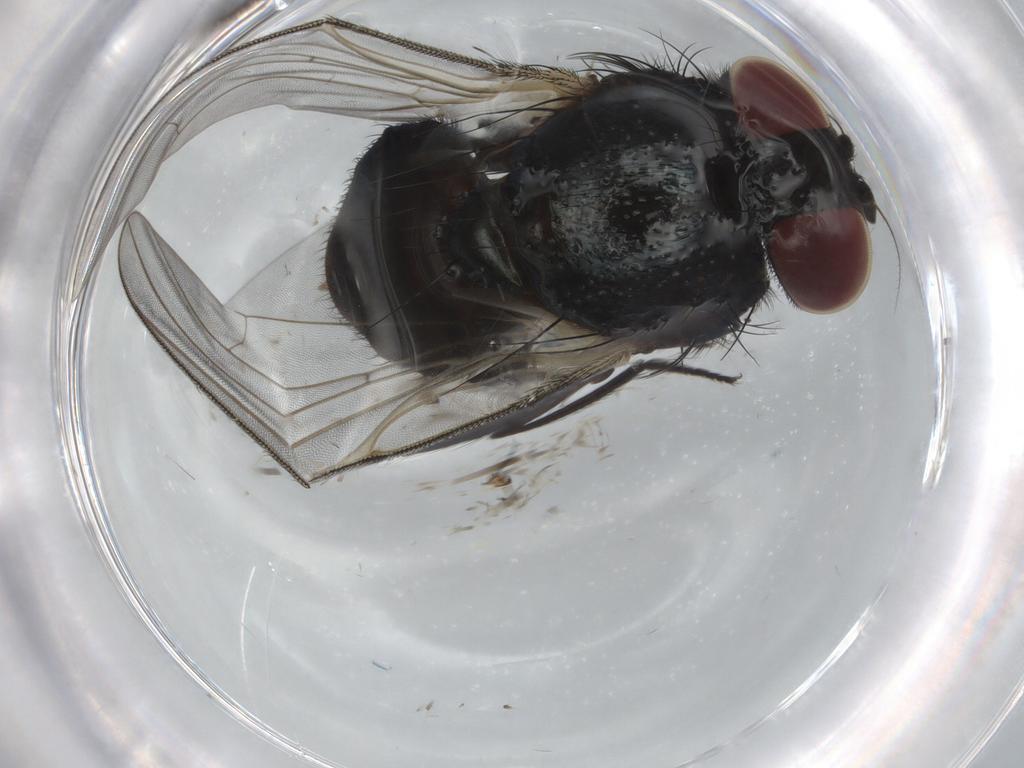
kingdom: Animalia
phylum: Arthropoda
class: Insecta
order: Diptera
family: Lonchaeidae
